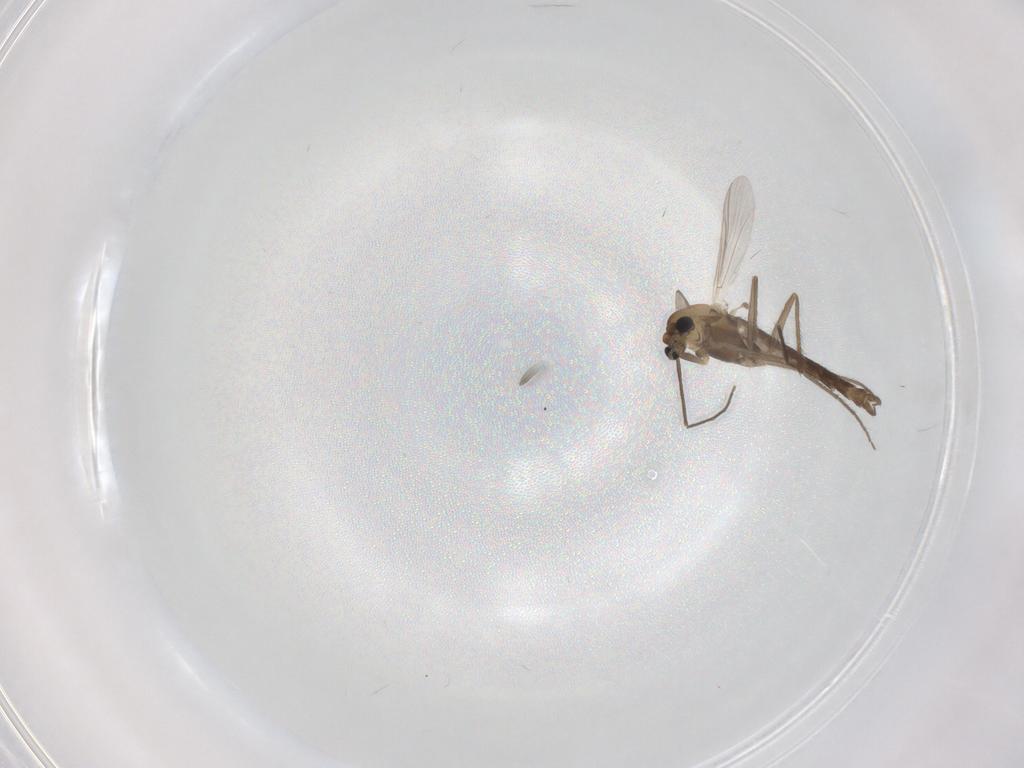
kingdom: Animalia
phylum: Arthropoda
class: Insecta
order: Diptera
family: Chironomidae
